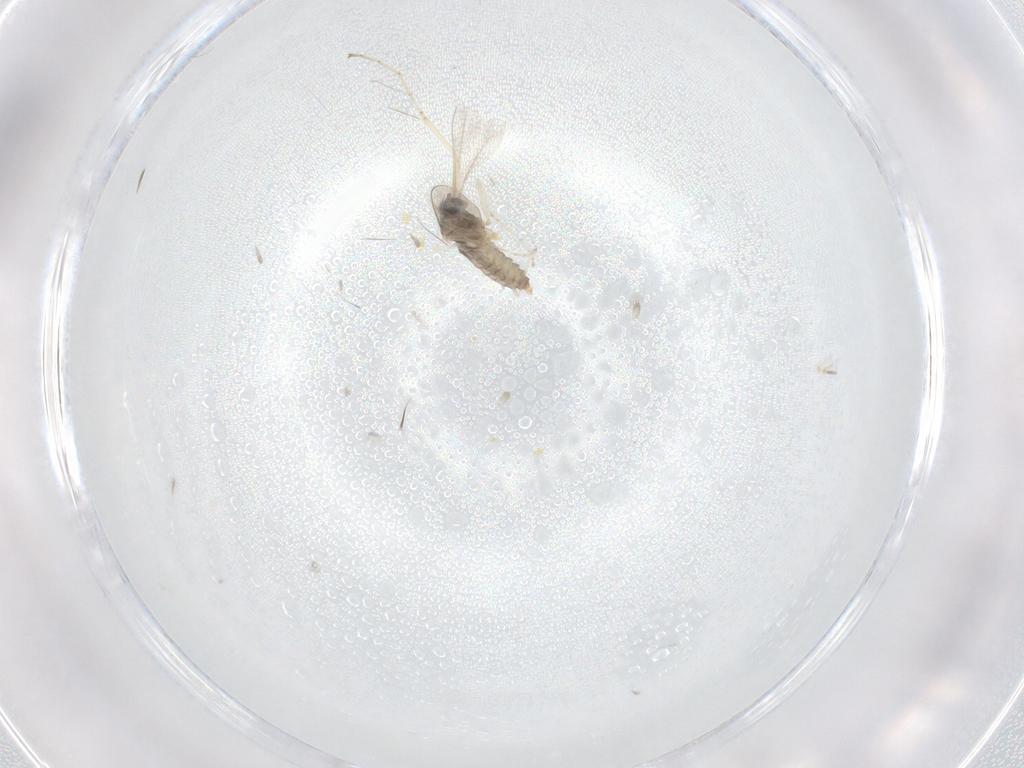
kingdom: Animalia
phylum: Arthropoda
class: Insecta
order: Diptera
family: Cecidomyiidae
